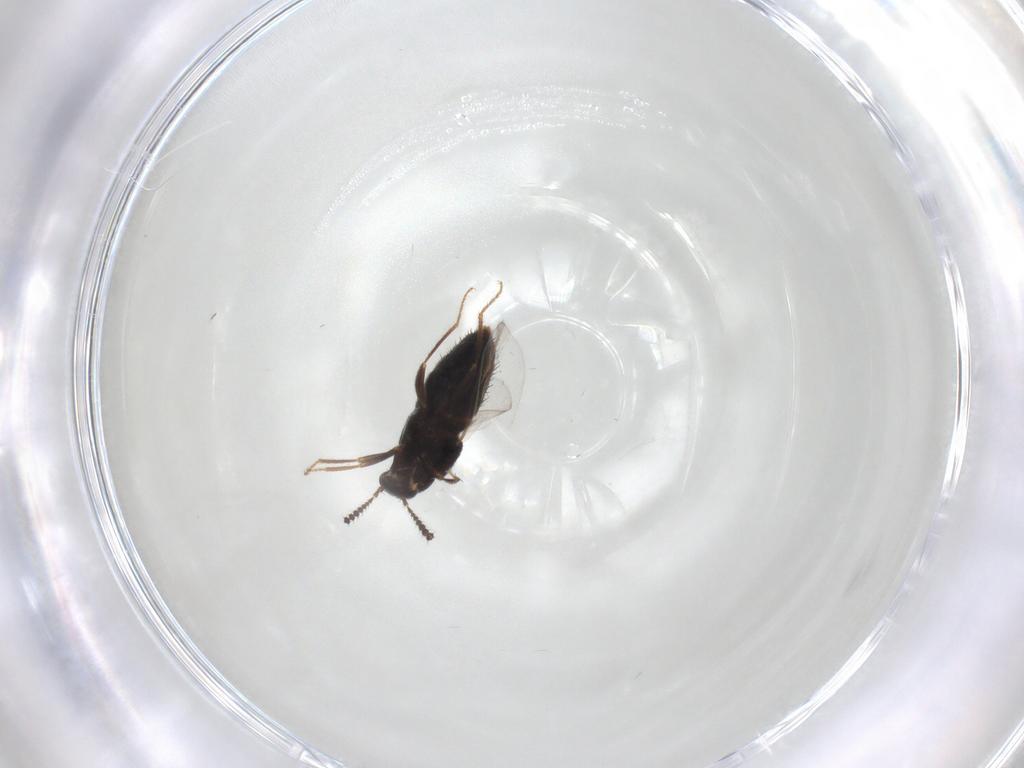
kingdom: Animalia
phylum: Arthropoda
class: Insecta
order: Coleoptera
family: Staphylinidae
